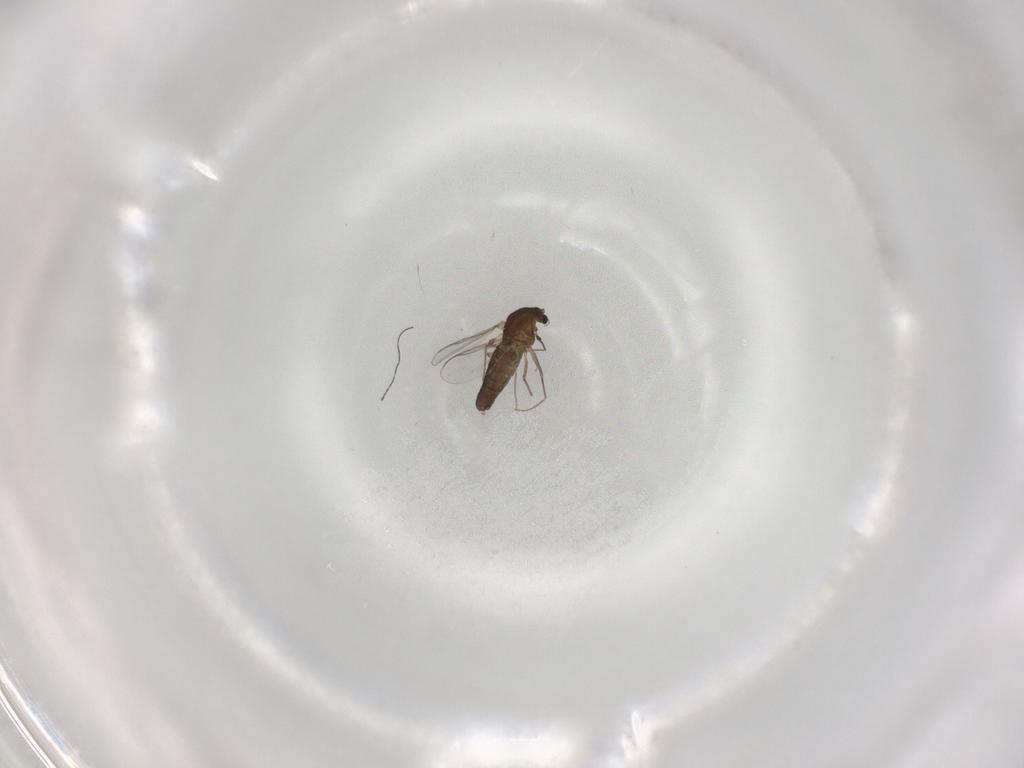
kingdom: Animalia
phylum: Arthropoda
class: Insecta
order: Diptera
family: Chironomidae
